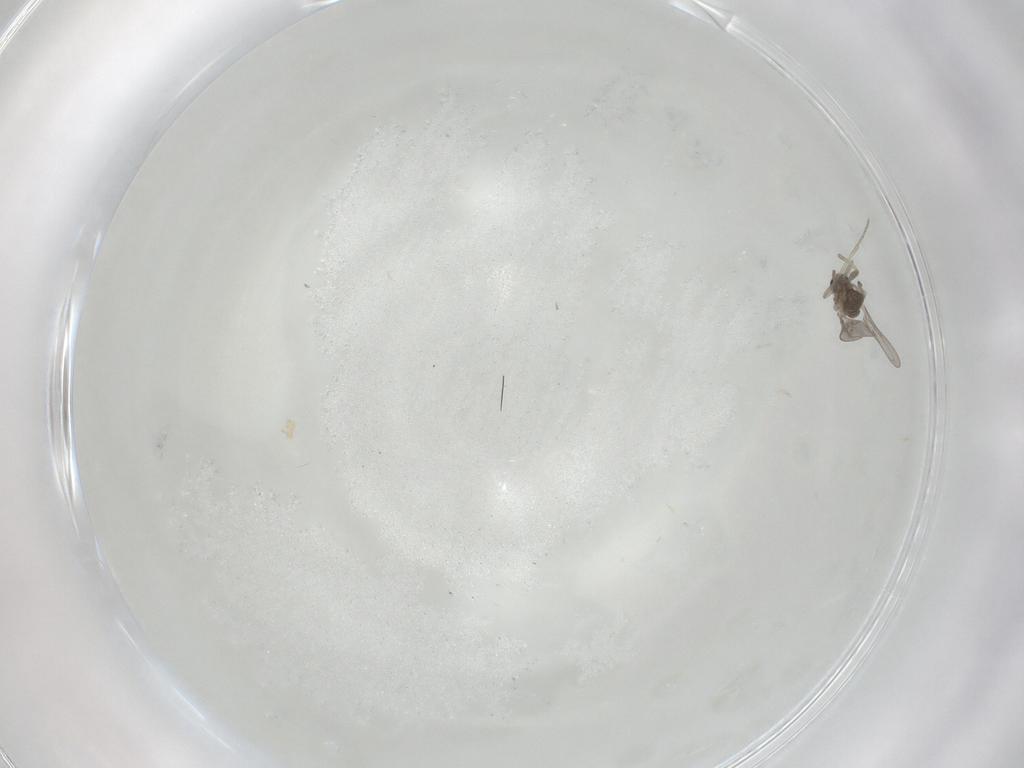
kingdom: Animalia
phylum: Arthropoda
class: Insecta
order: Diptera
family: Cecidomyiidae
